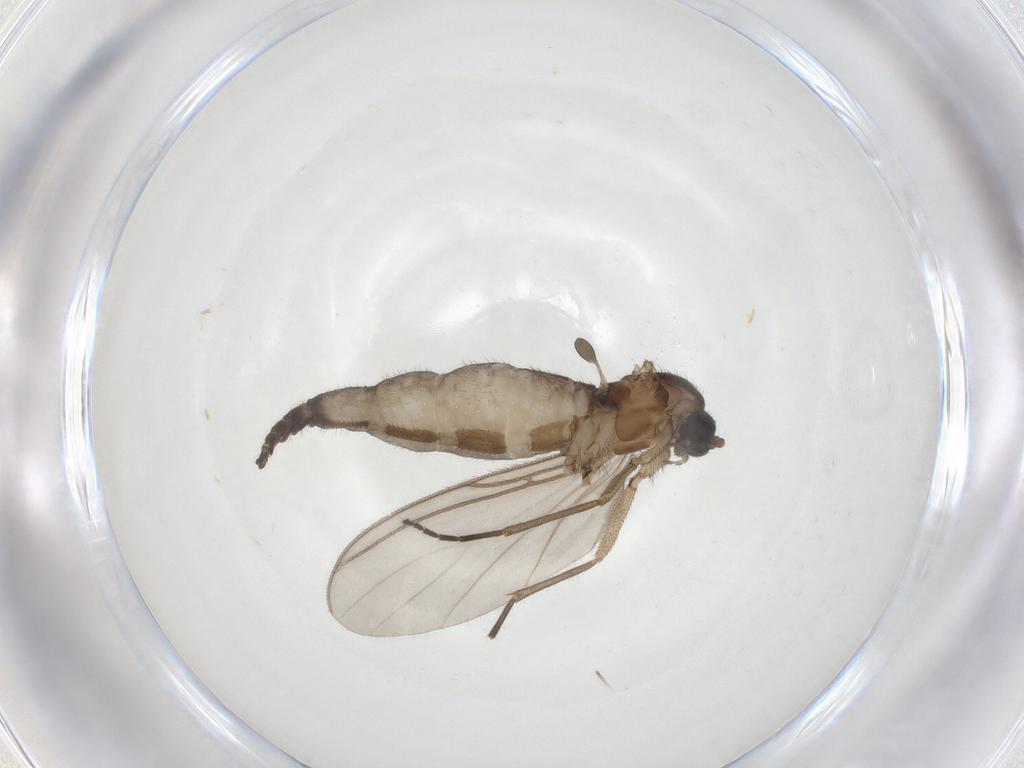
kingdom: Animalia
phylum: Arthropoda
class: Insecta
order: Diptera
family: Sciaridae
